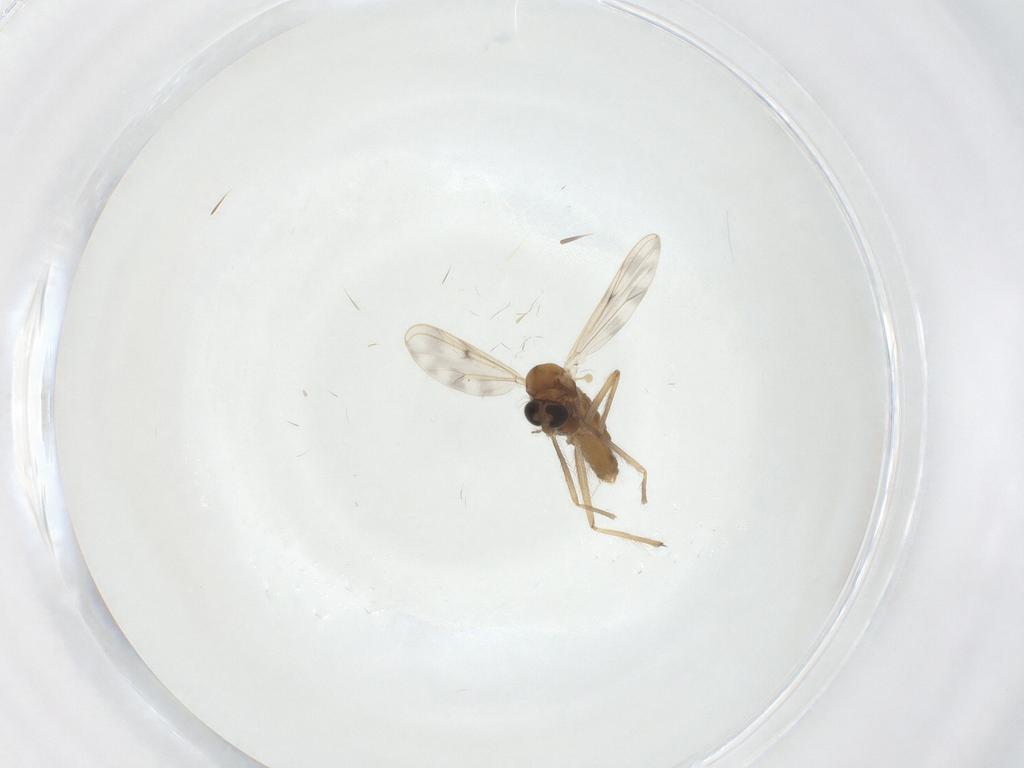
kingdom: Animalia
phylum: Arthropoda
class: Insecta
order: Diptera
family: Chironomidae
